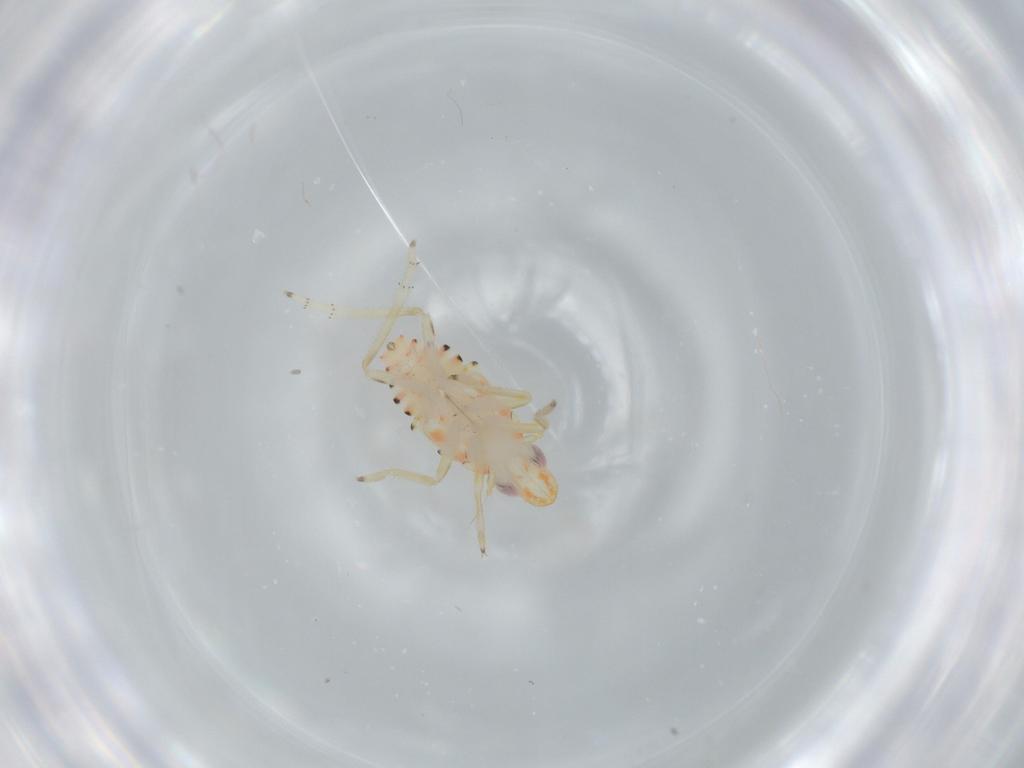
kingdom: Animalia
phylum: Arthropoda
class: Insecta
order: Hemiptera
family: Tropiduchidae
